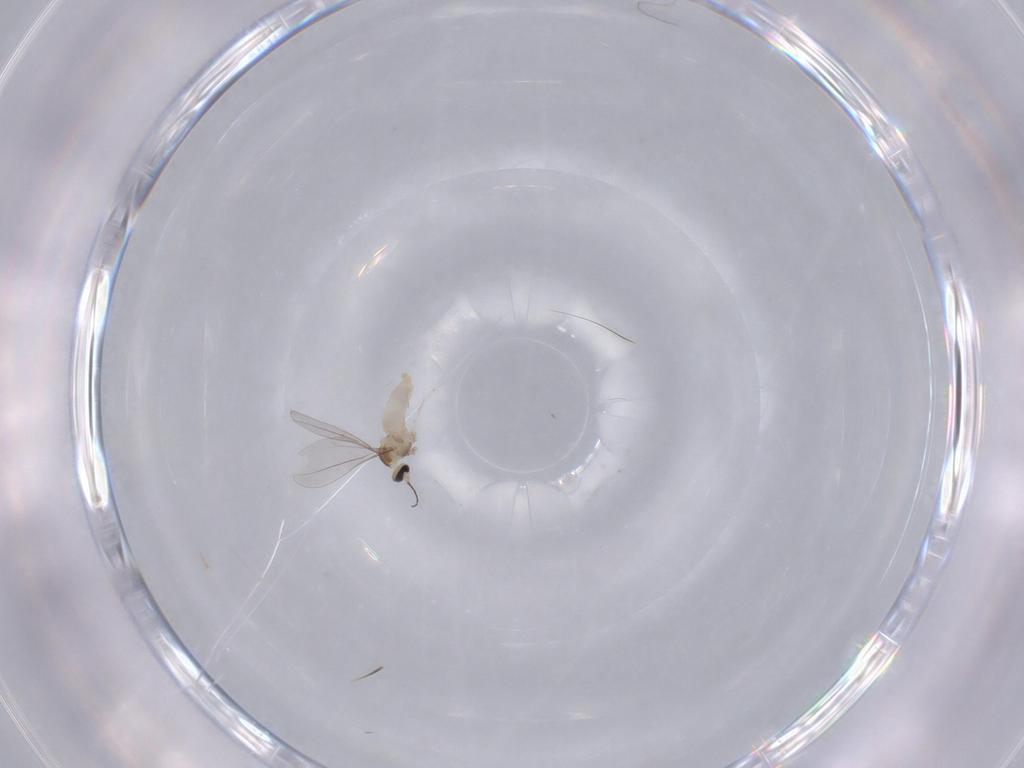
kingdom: Animalia
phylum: Arthropoda
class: Insecta
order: Diptera
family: Cecidomyiidae
